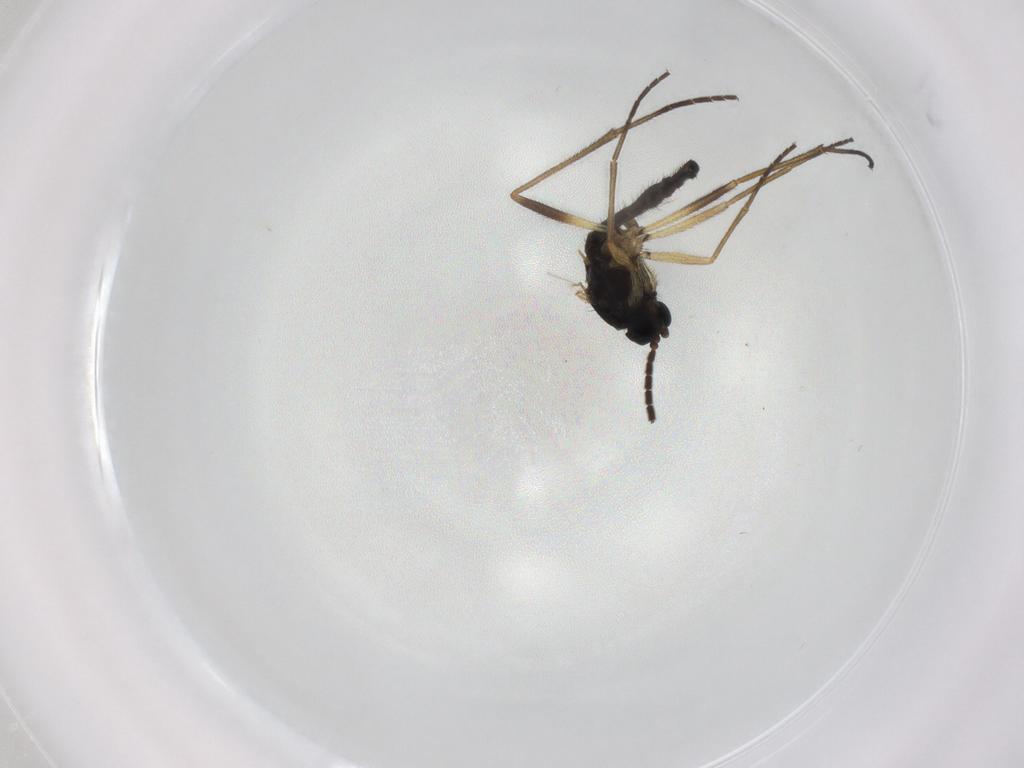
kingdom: Animalia
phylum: Arthropoda
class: Insecta
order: Diptera
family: Sciaridae
